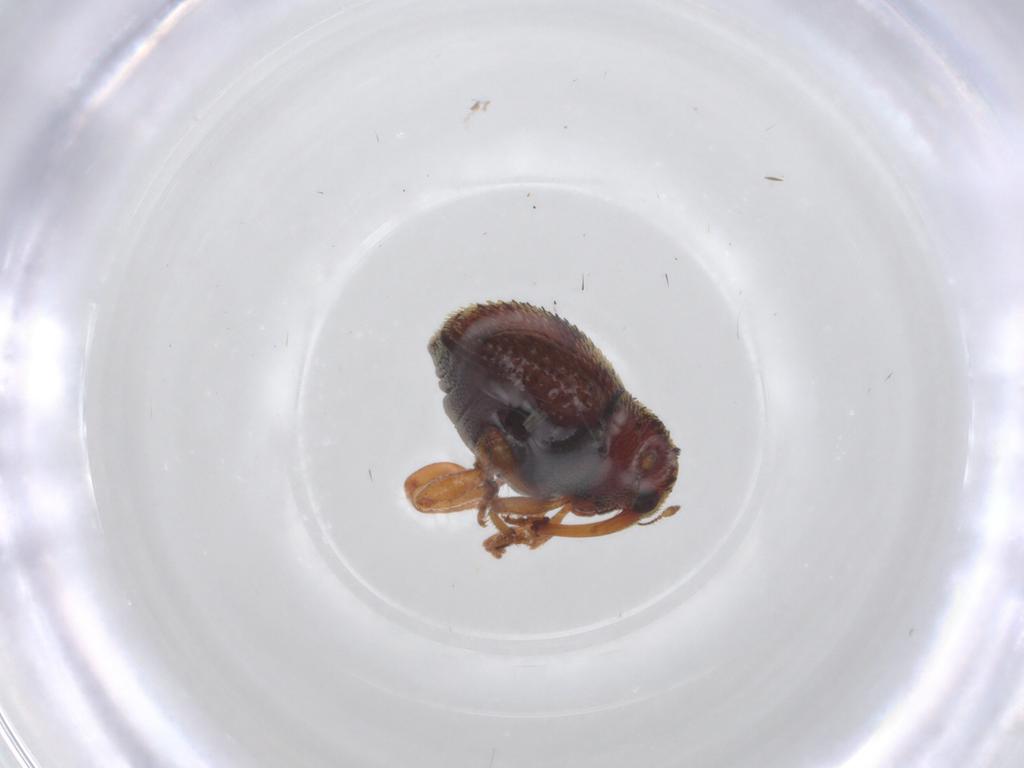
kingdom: Animalia
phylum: Arthropoda
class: Insecta
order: Coleoptera
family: Curculionidae
